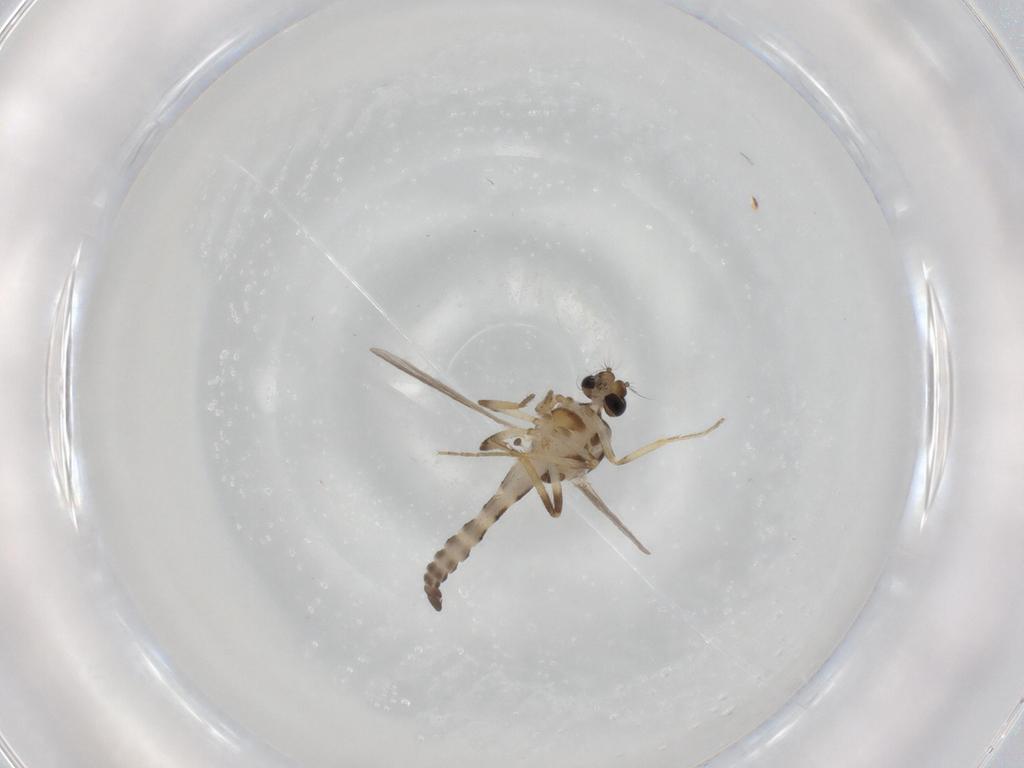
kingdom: Animalia
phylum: Arthropoda
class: Insecta
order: Diptera
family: Ceratopogonidae
